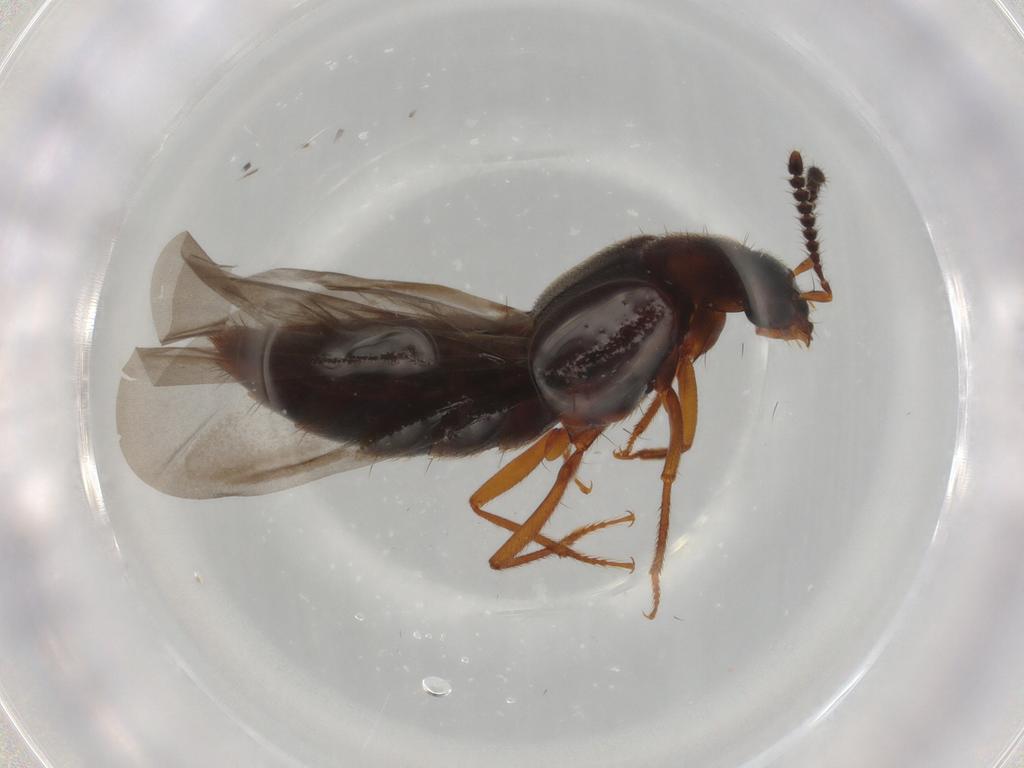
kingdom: Animalia
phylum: Arthropoda
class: Insecta
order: Coleoptera
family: Staphylinidae
